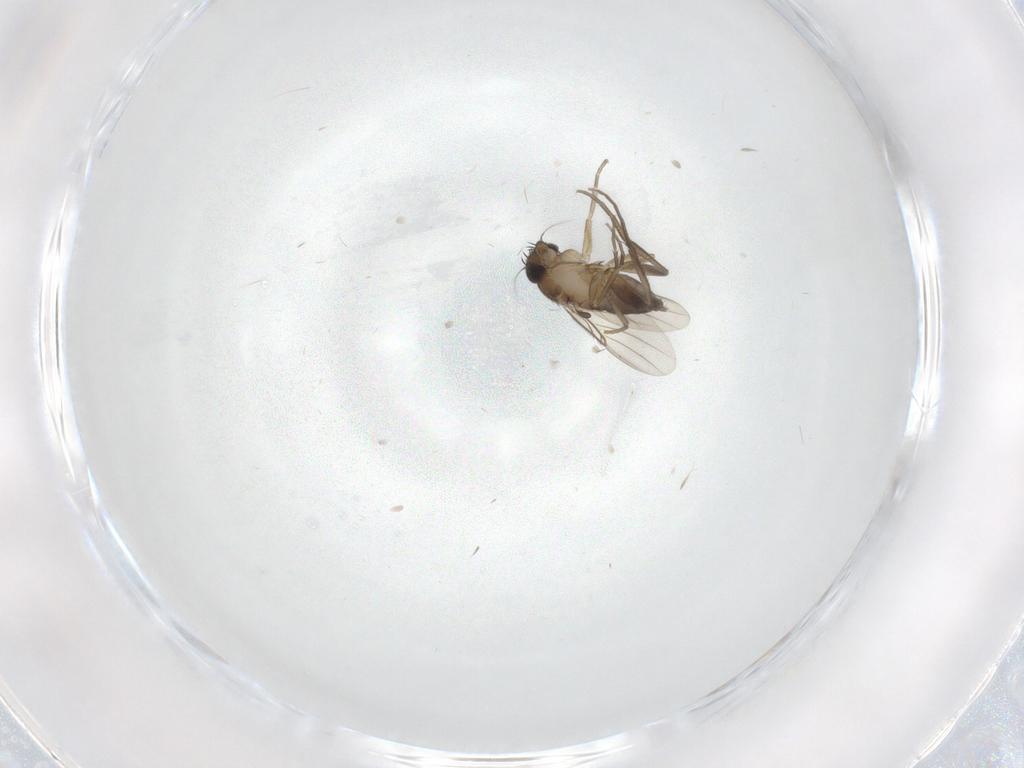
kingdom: Animalia
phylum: Arthropoda
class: Insecta
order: Diptera
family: Phoridae
